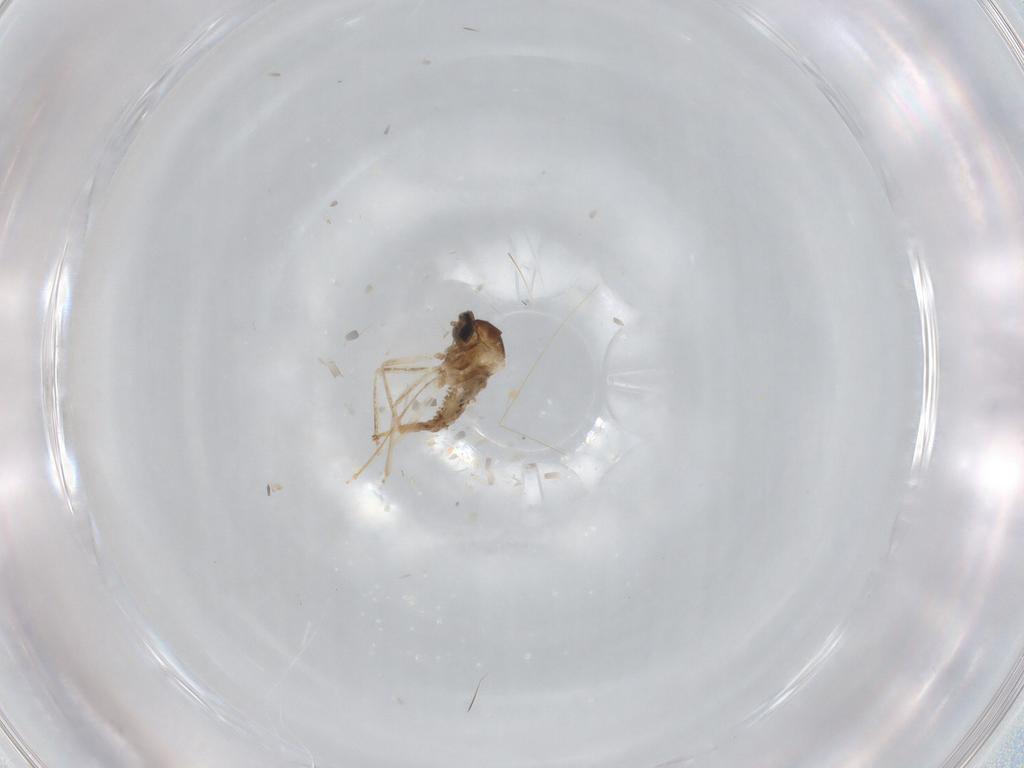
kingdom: Animalia
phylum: Arthropoda
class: Insecta
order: Diptera
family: Cecidomyiidae
